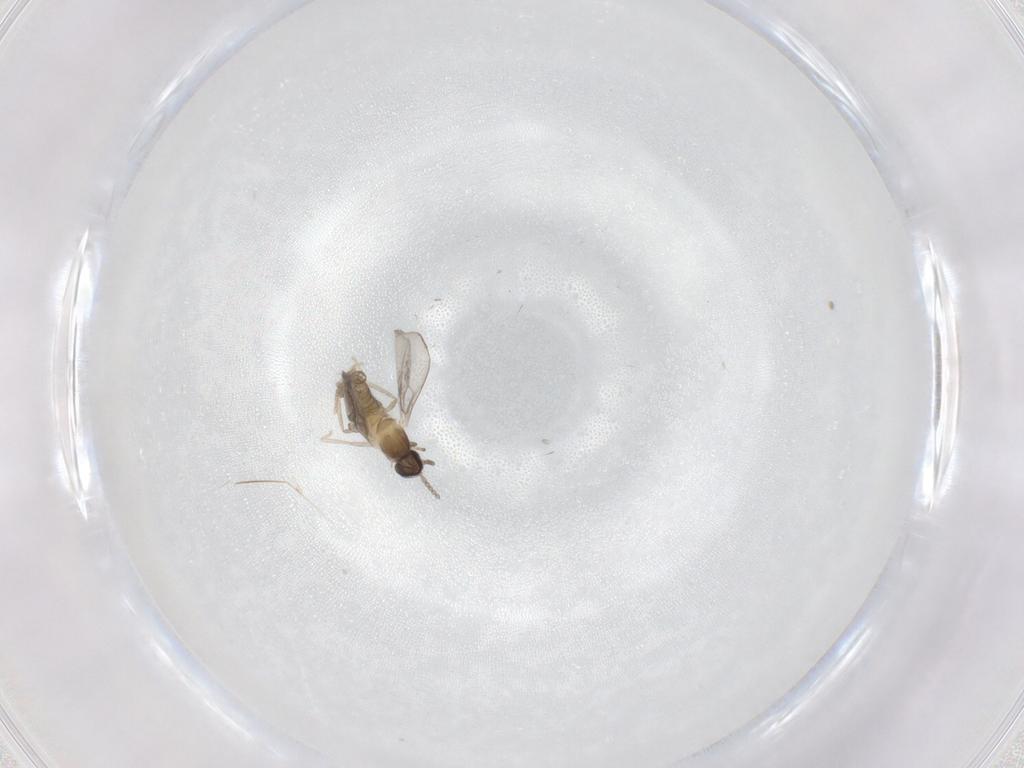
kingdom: Animalia
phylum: Arthropoda
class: Insecta
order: Diptera
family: Cecidomyiidae
